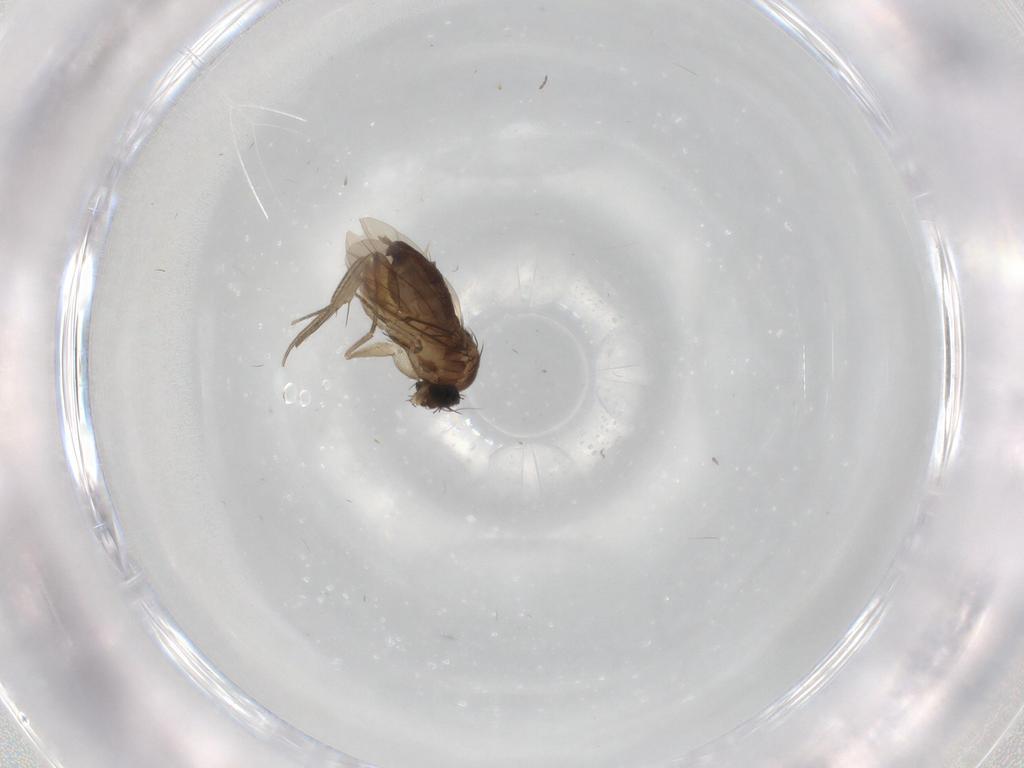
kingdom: Animalia
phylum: Arthropoda
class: Insecta
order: Diptera
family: Phoridae
